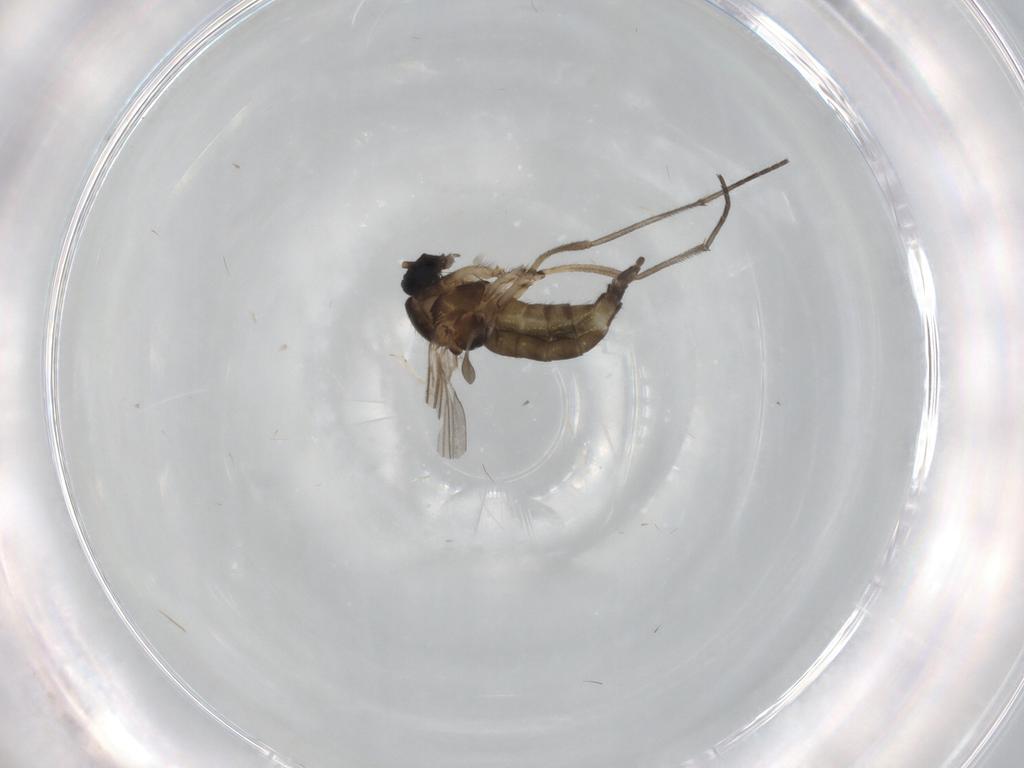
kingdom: Animalia
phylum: Arthropoda
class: Insecta
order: Diptera
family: Sciaridae
